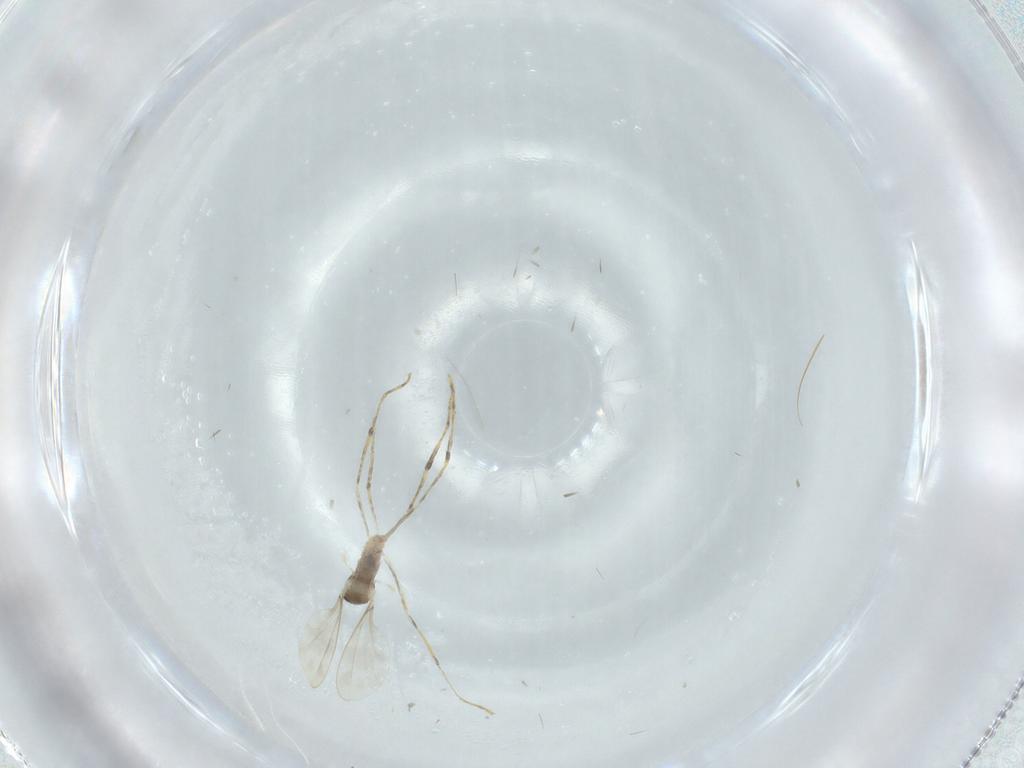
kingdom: Animalia
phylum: Arthropoda
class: Insecta
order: Diptera
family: Cecidomyiidae
